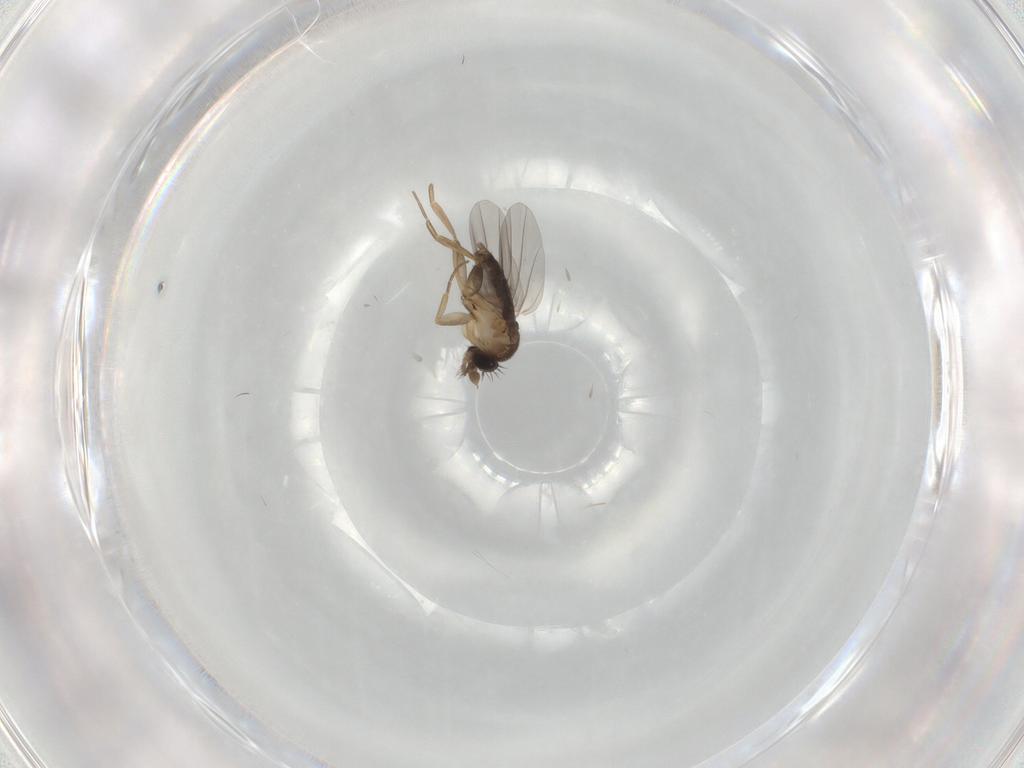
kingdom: Animalia
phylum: Arthropoda
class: Insecta
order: Diptera
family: Phoridae
